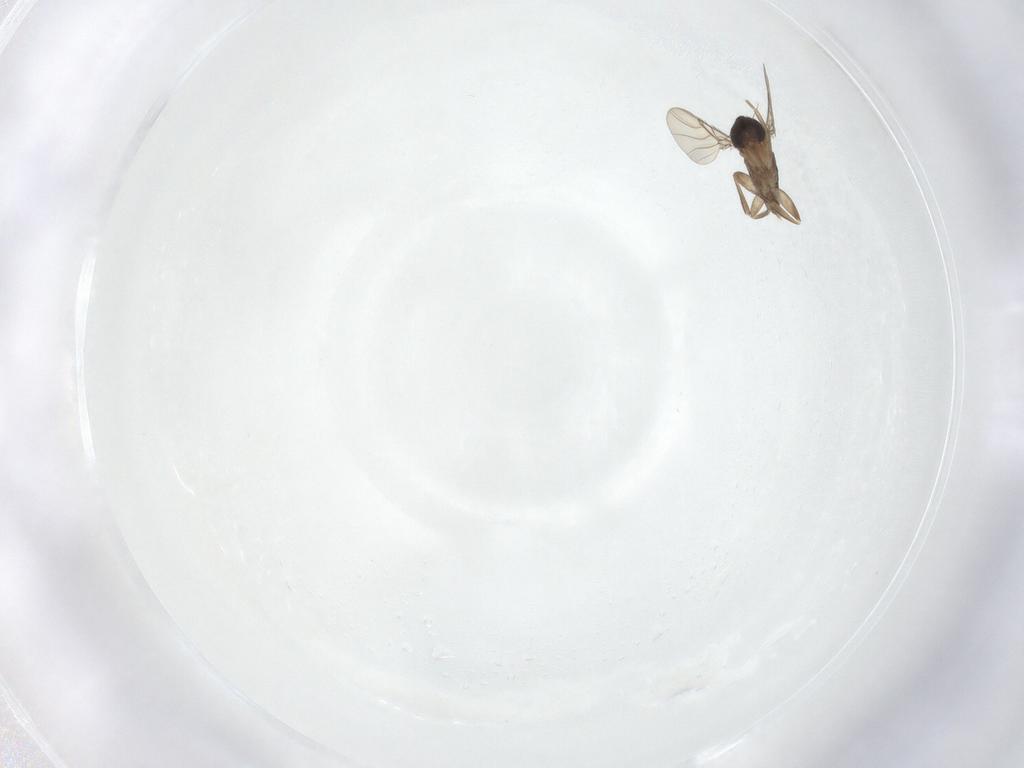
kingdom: Animalia
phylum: Arthropoda
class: Insecta
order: Diptera
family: Phoridae
